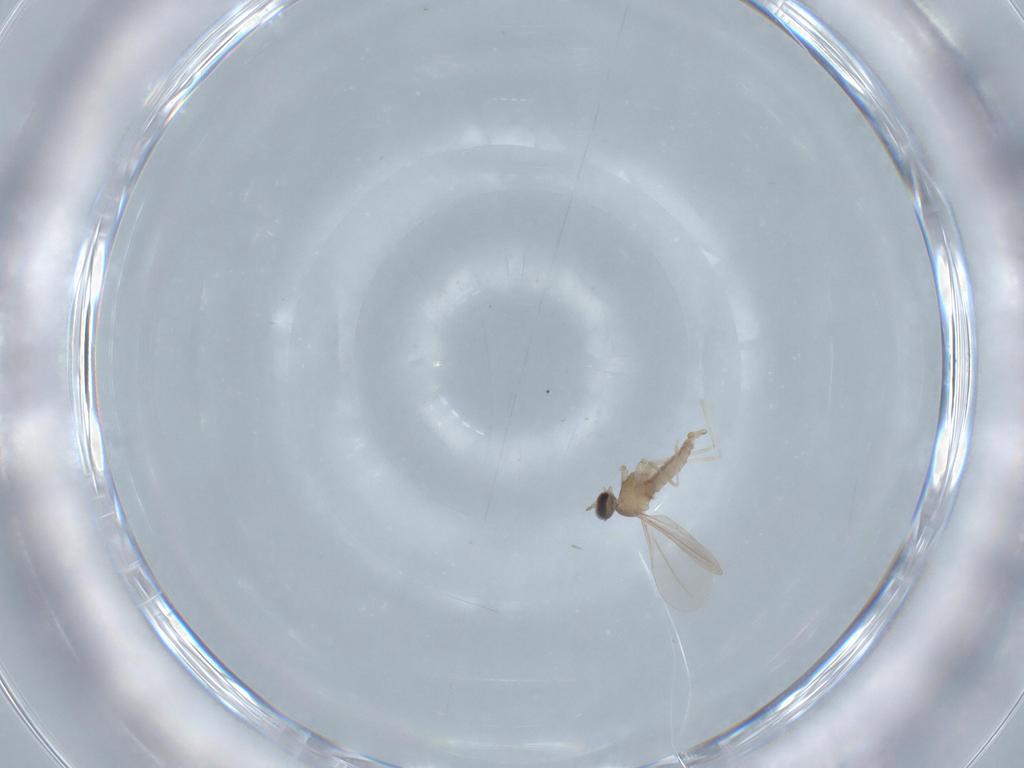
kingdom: Animalia
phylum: Arthropoda
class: Insecta
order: Diptera
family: Cecidomyiidae
